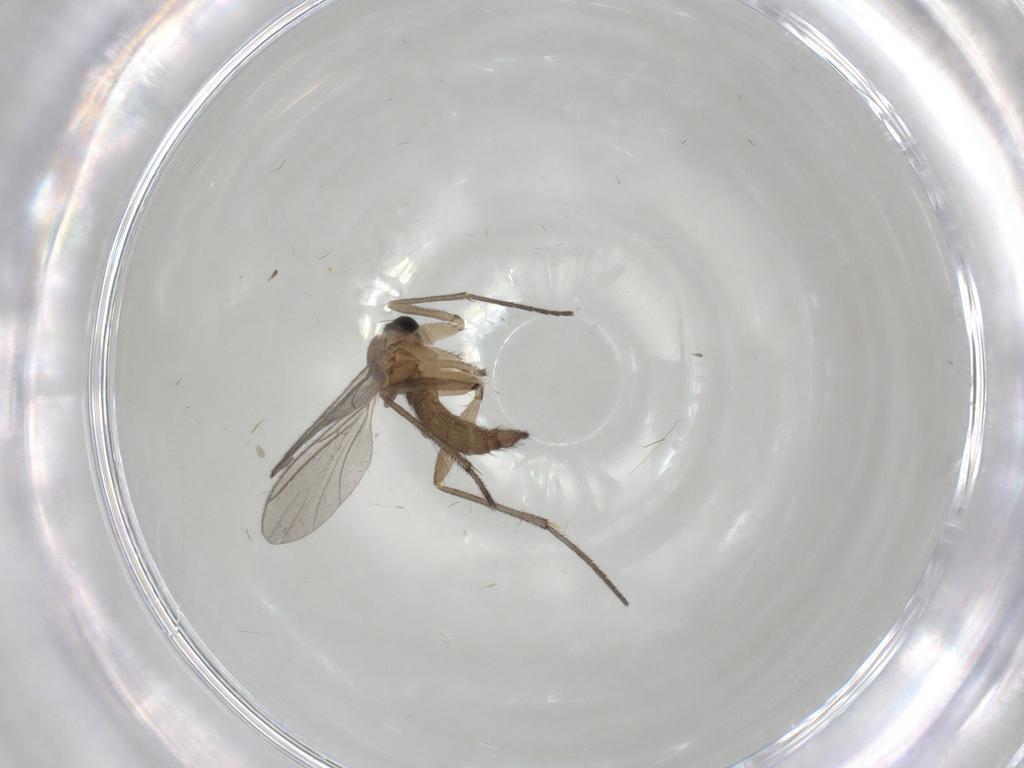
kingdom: Animalia
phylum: Arthropoda
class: Insecta
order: Diptera
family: Sciaridae
